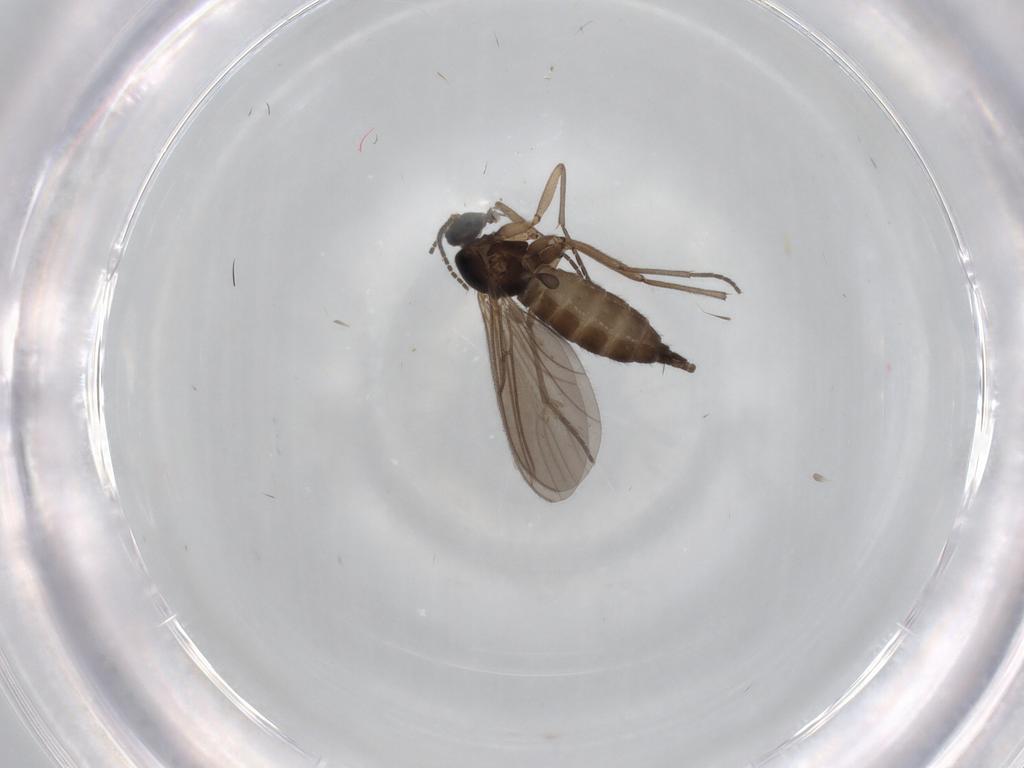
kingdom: Animalia
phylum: Arthropoda
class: Insecta
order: Diptera
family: Sciaridae
